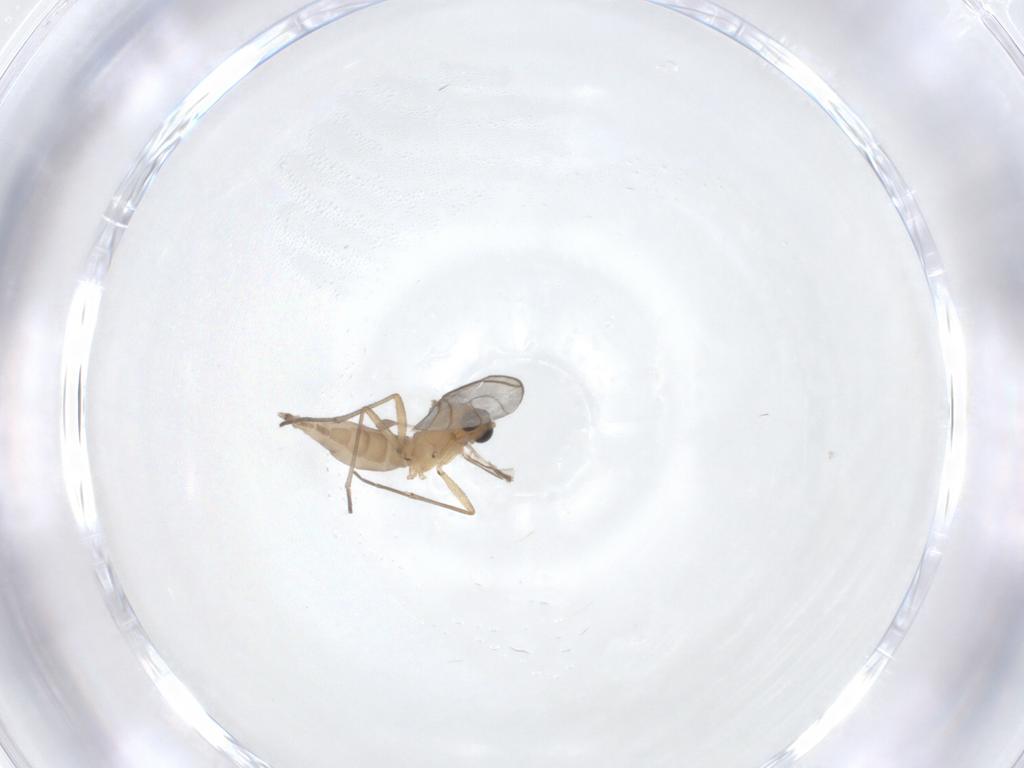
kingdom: Animalia
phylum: Arthropoda
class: Insecta
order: Diptera
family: Sciaridae
